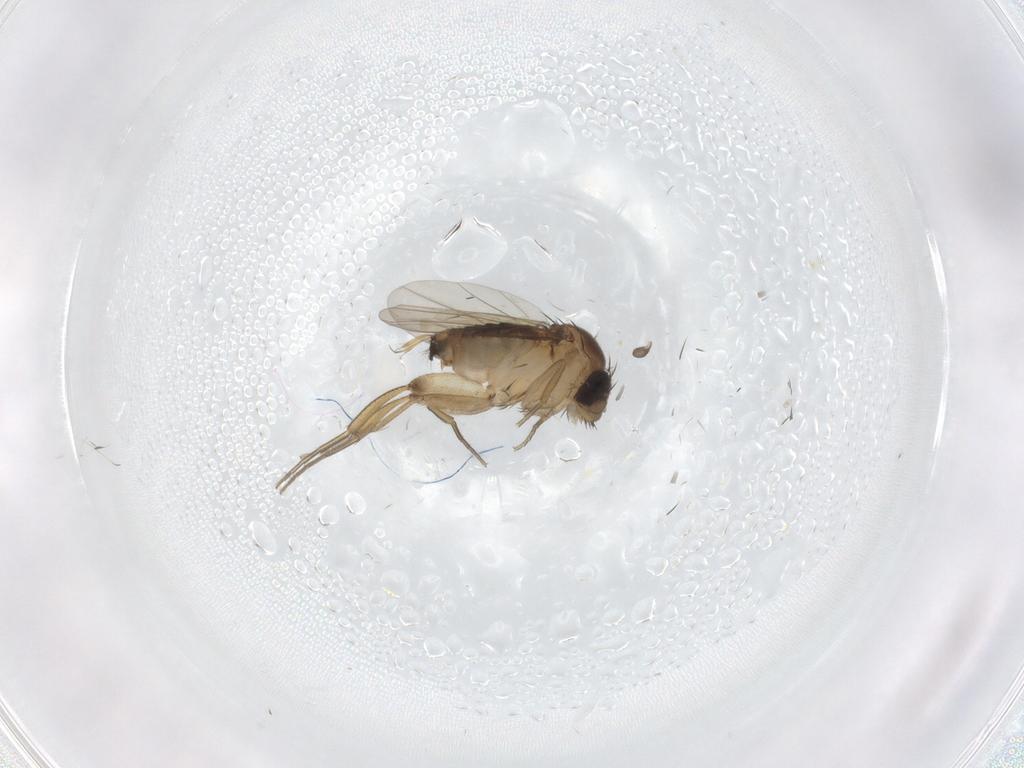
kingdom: Animalia
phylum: Arthropoda
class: Insecta
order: Diptera
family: Phoridae
